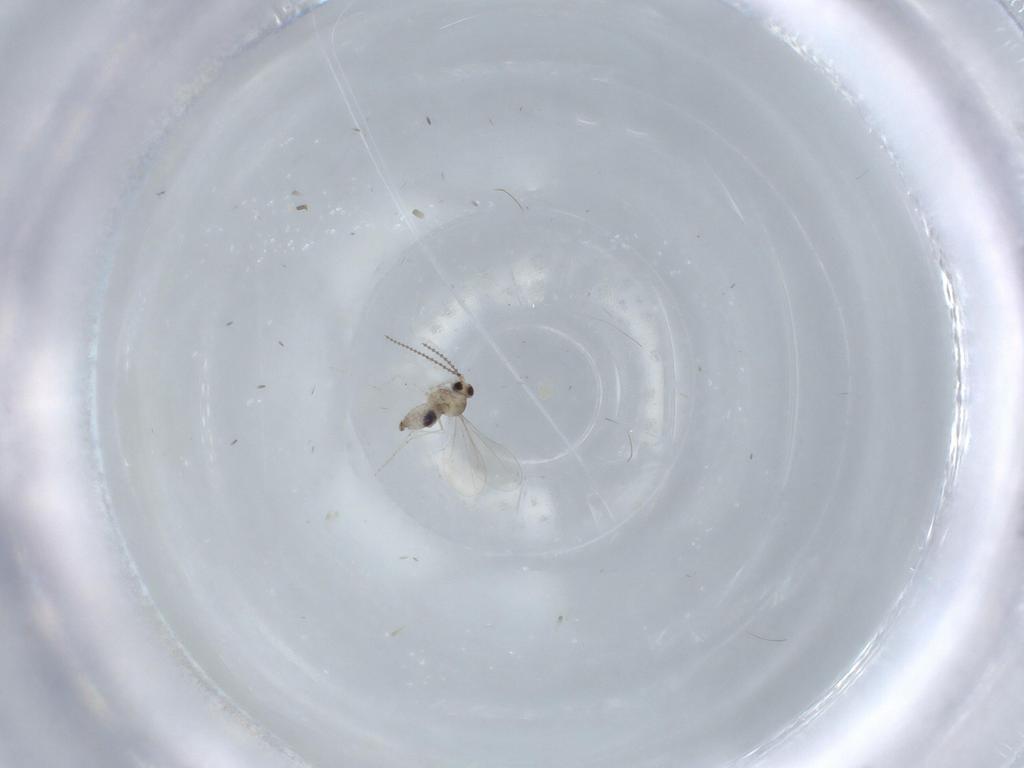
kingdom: Animalia
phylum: Arthropoda
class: Insecta
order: Diptera
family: Cecidomyiidae
